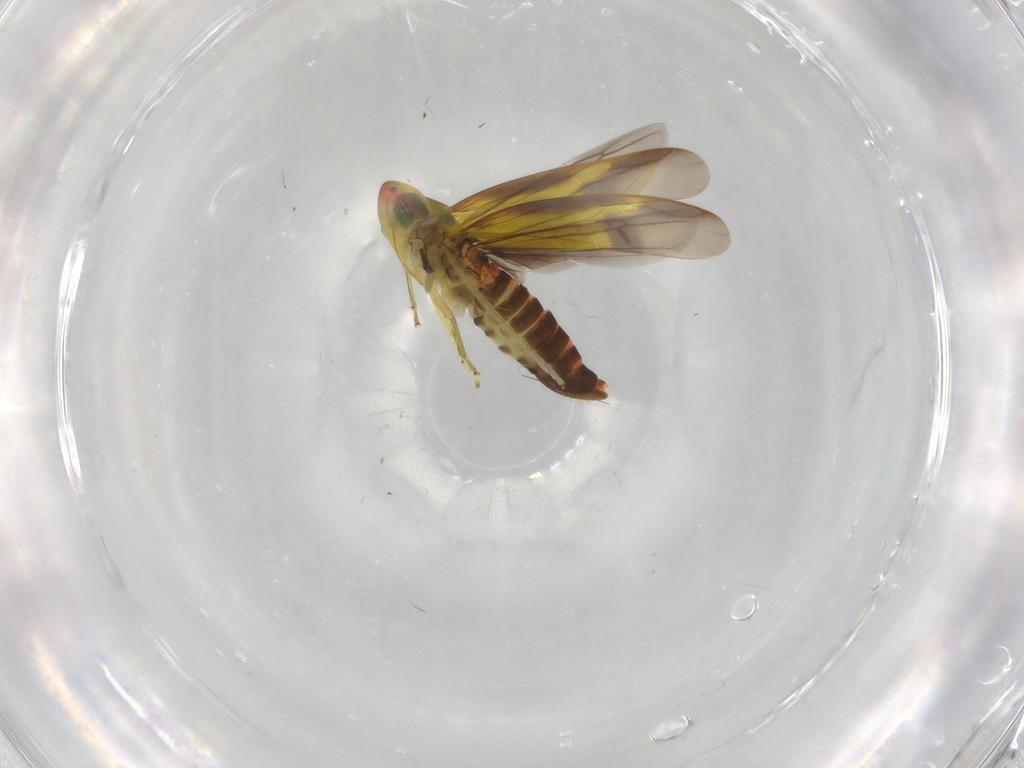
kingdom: Animalia
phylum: Arthropoda
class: Insecta
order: Hemiptera
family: Cicadellidae
